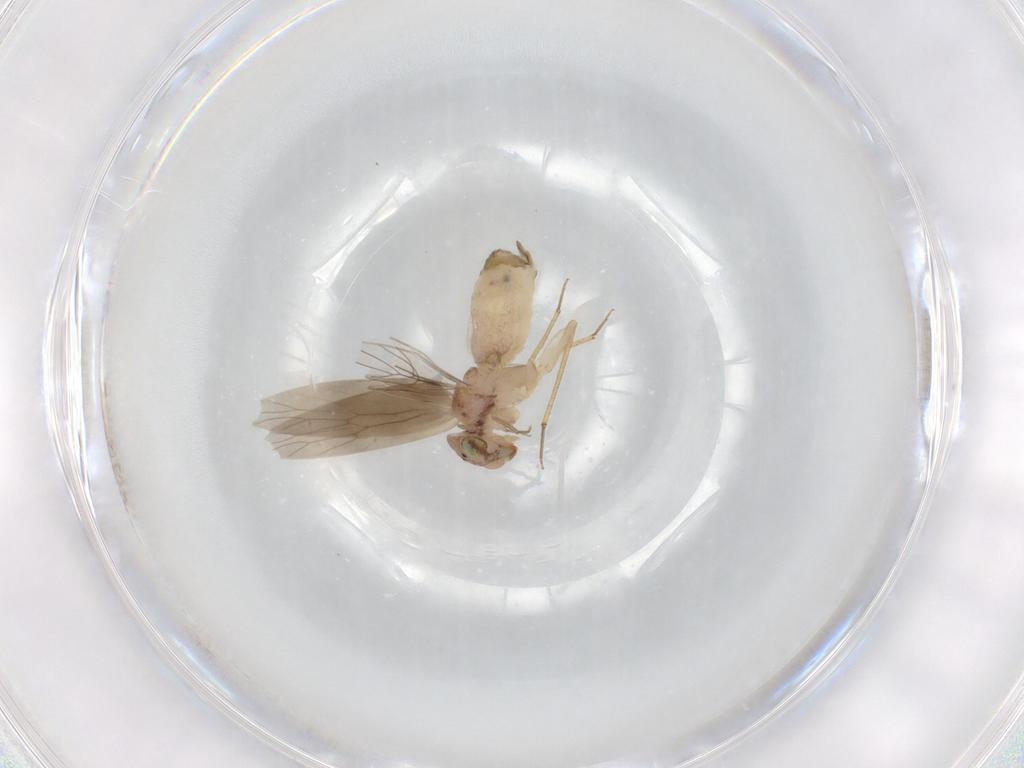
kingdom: Animalia
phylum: Arthropoda
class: Insecta
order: Psocodea
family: Lepidopsocidae
